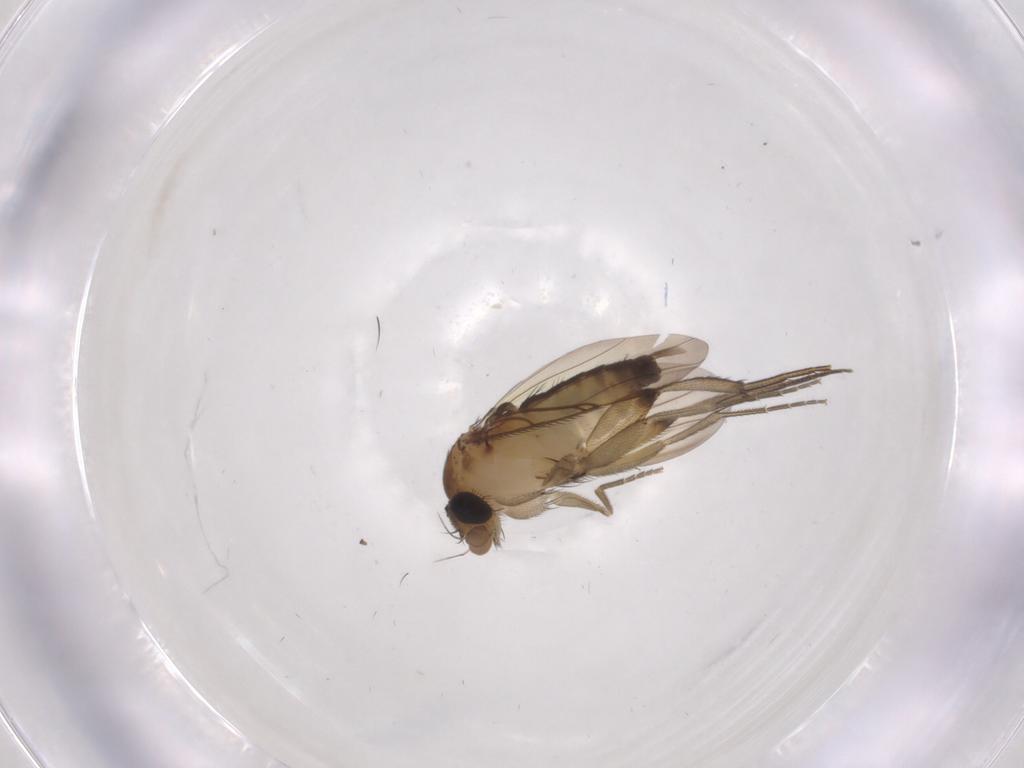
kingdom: Animalia
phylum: Arthropoda
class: Insecta
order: Diptera
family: Phoridae
